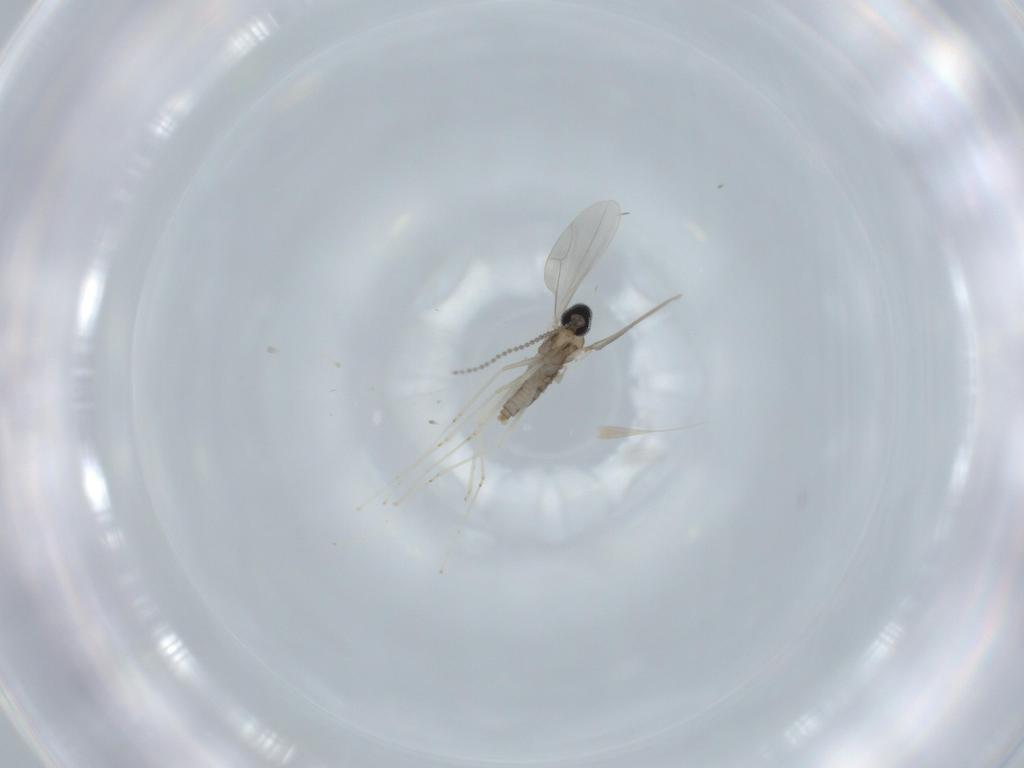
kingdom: Animalia
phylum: Arthropoda
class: Insecta
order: Diptera
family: Cecidomyiidae
